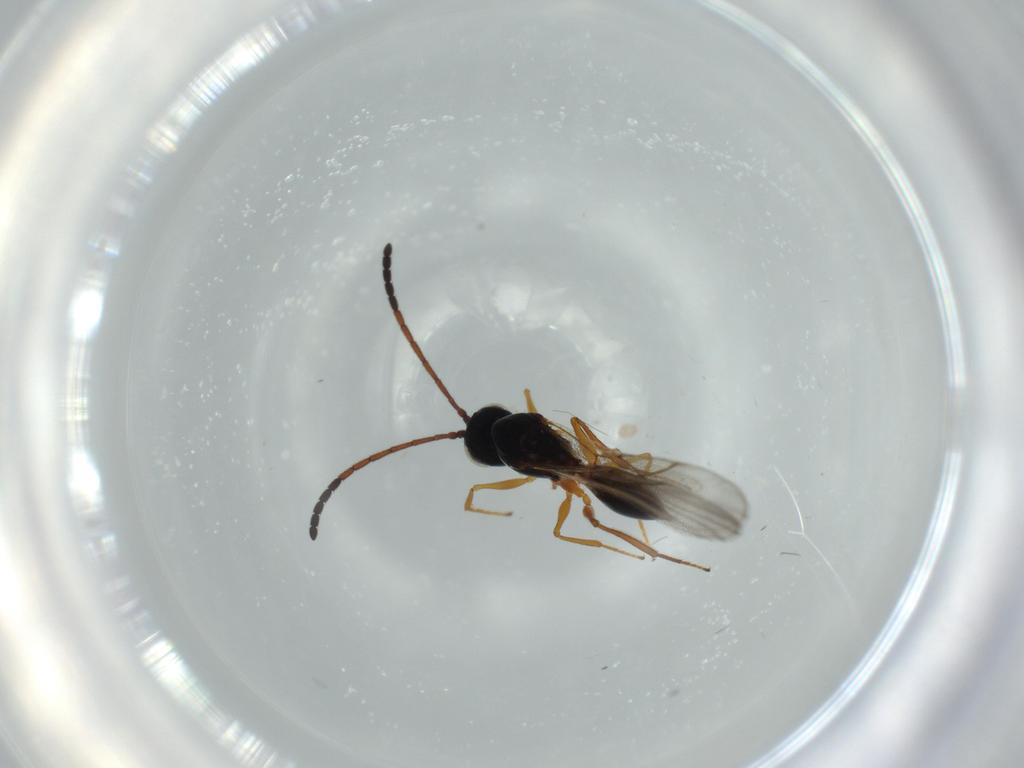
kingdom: Animalia
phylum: Arthropoda
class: Insecta
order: Hymenoptera
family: Figitidae
